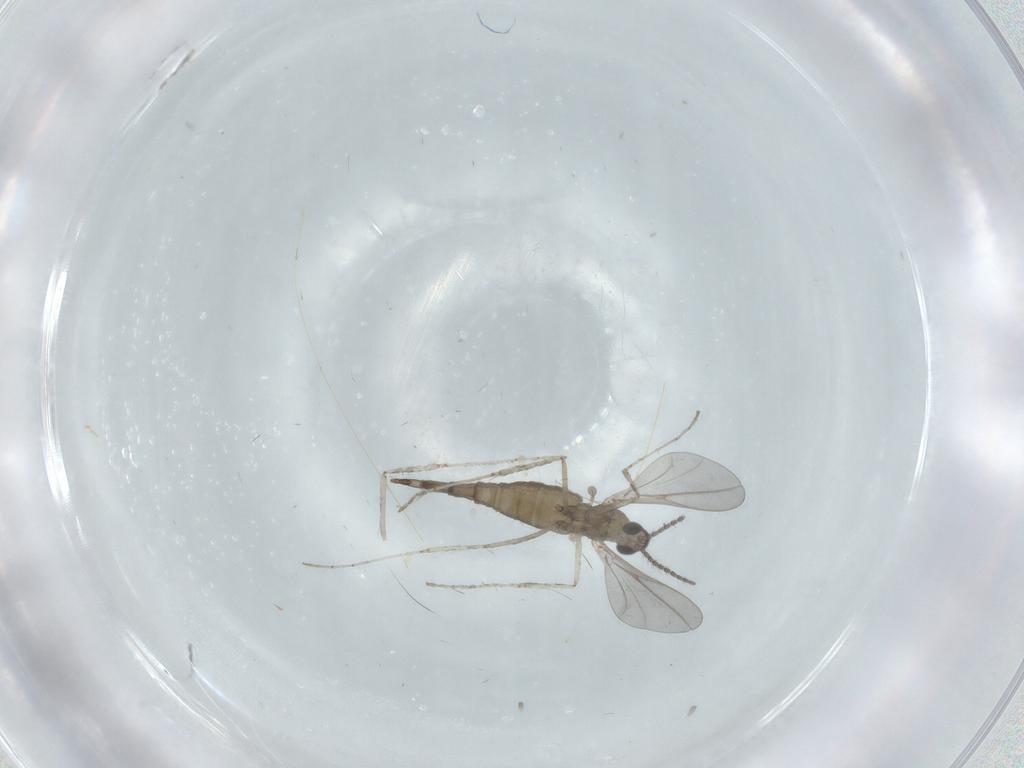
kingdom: Animalia
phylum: Arthropoda
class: Insecta
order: Diptera
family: Cecidomyiidae
